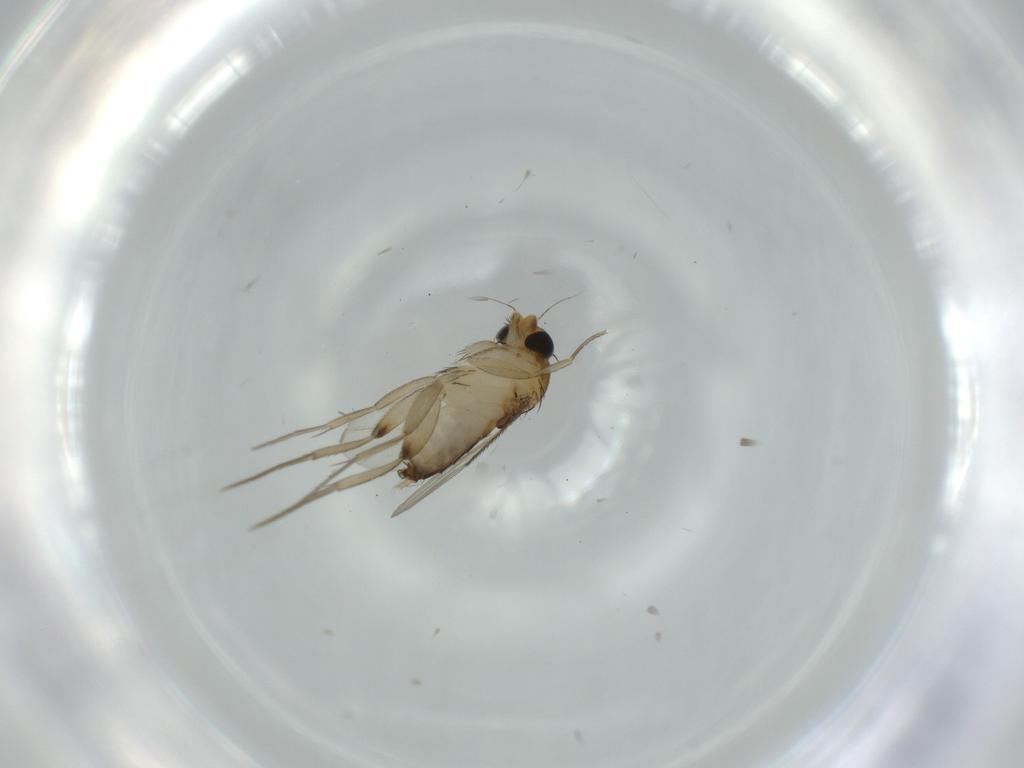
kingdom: Animalia
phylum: Arthropoda
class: Insecta
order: Diptera
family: Phoridae
